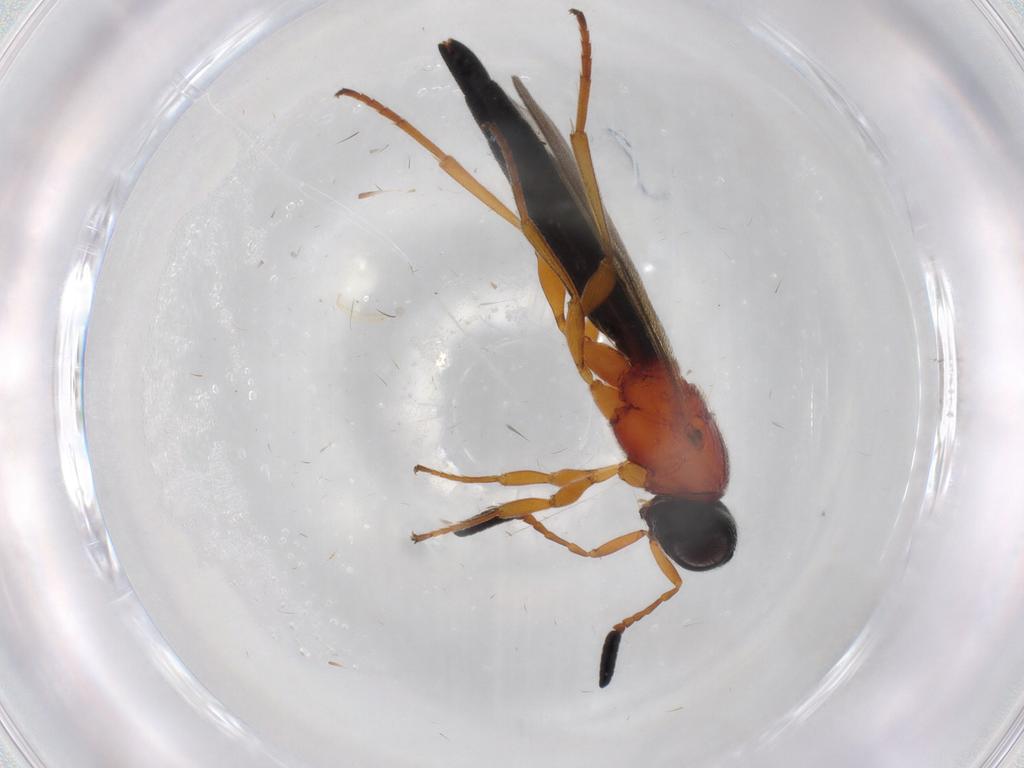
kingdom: Animalia
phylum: Arthropoda
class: Insecta
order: Hymenoptera
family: Scelionidae
